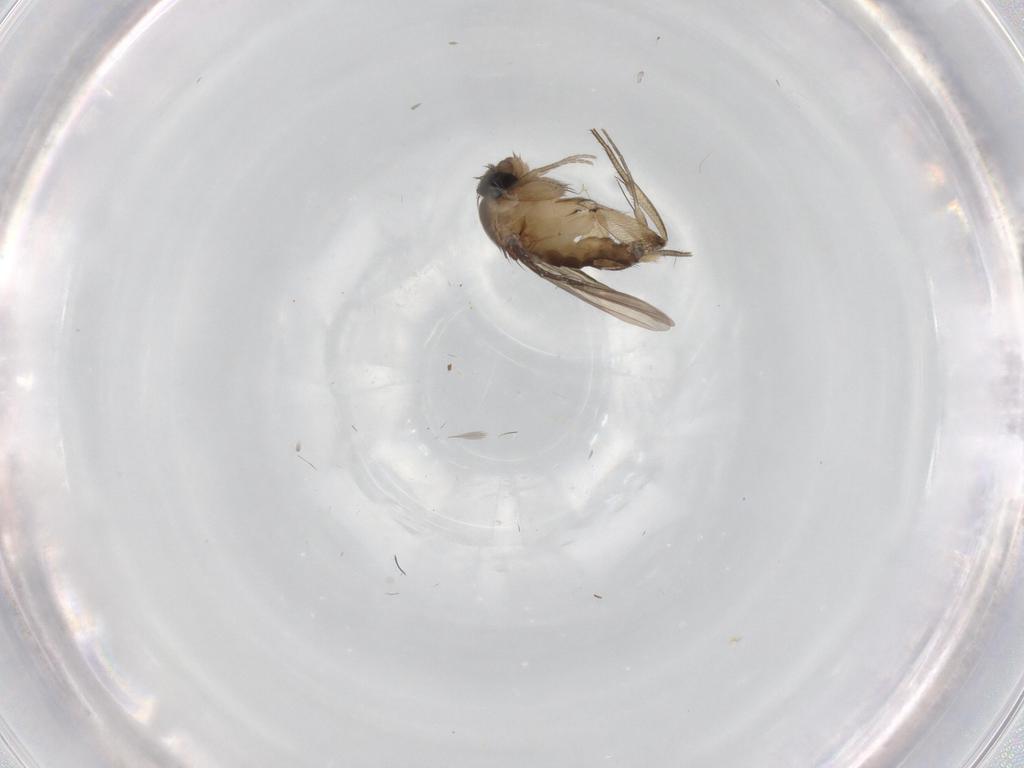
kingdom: Animalia
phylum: Arthropoda
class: Insecta
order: Diptera
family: Phoridae
